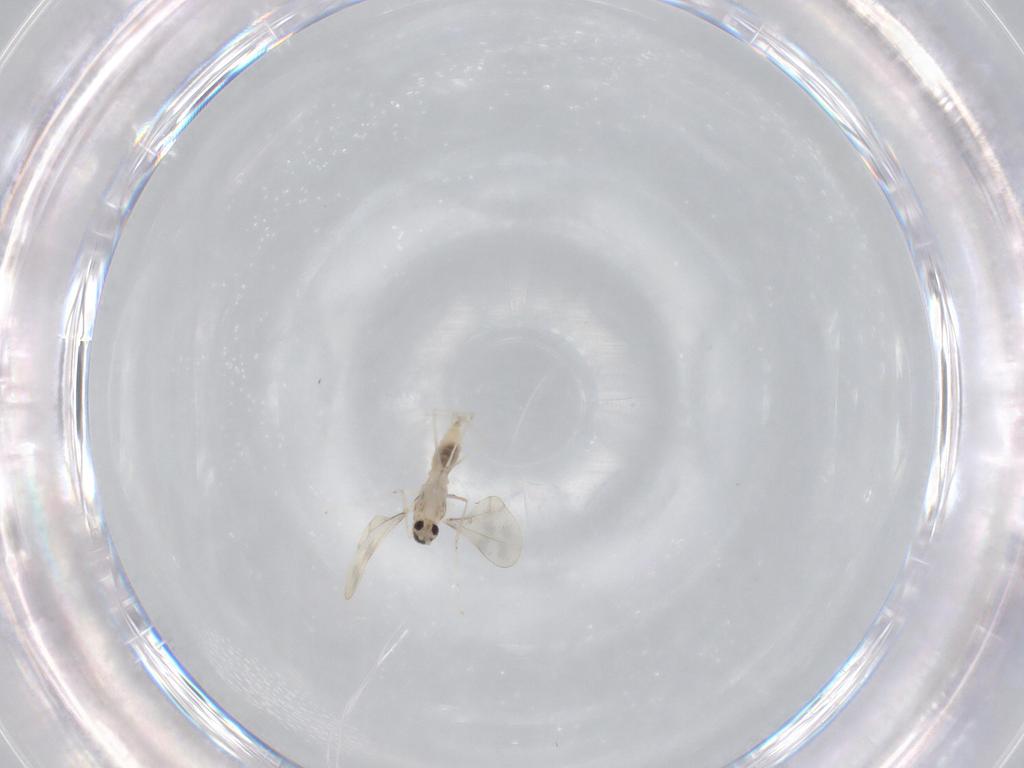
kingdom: Animalia
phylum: Arthropoda
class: Insecta
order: Diptera
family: Cecidomyiidae
